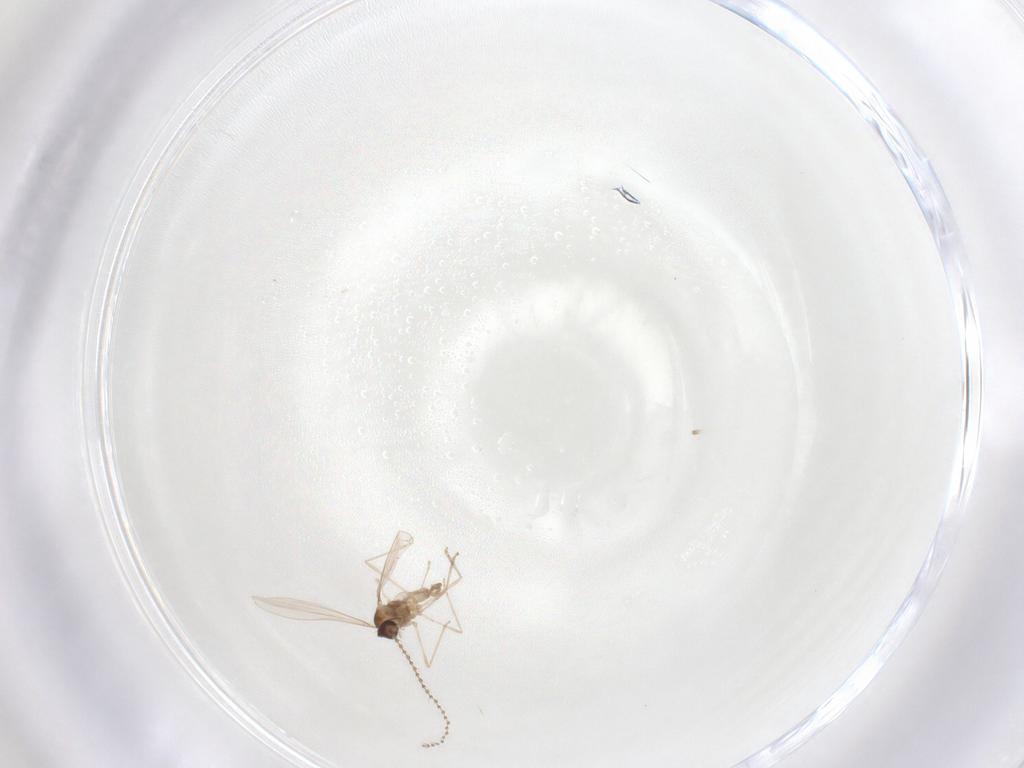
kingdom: Animalia
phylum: Arthropoda
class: Insecta
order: Diptera
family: Cecidomyiidae
